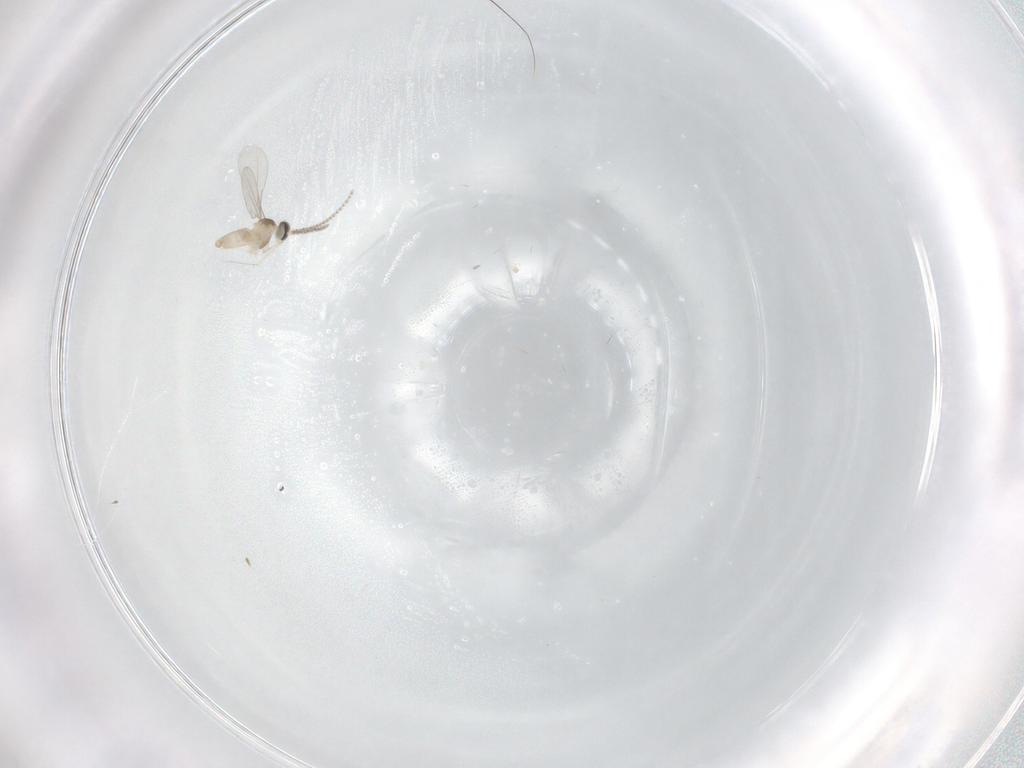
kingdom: Animalia
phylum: Arthropoda
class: Insecta
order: Diptera
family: Cecidomyiidae
